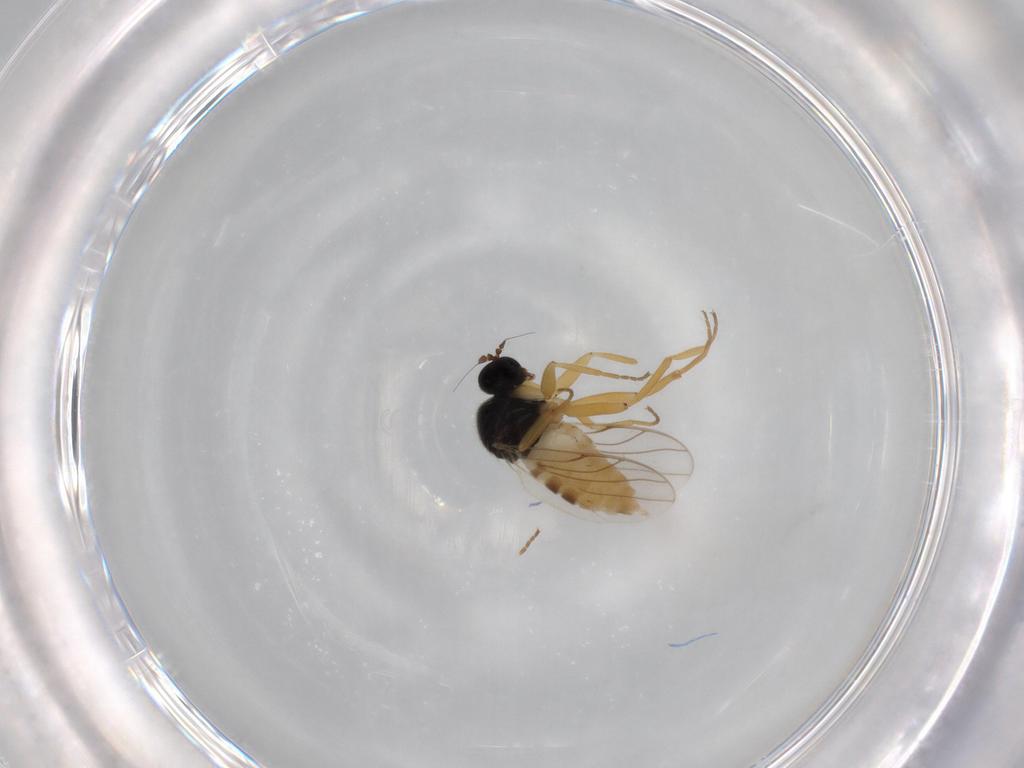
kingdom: Animalia
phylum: Arthropoda
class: Insecta
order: Diptera
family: Hybotidae
